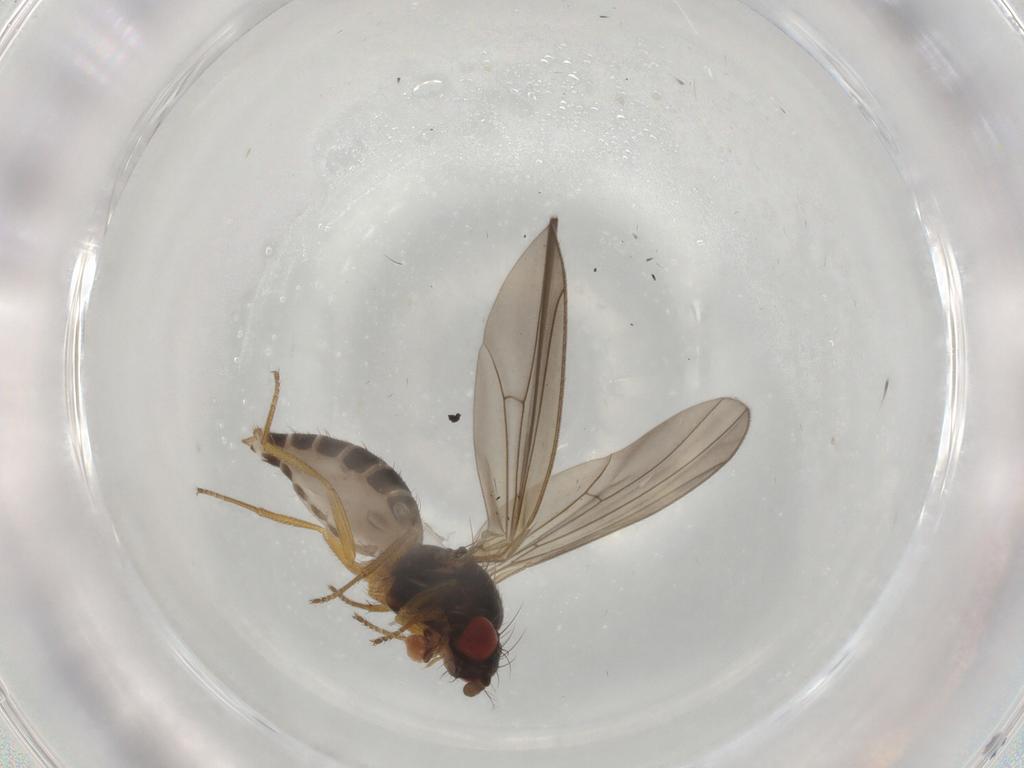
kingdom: Animalia
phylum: Arthropoda
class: Insecta
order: Diptera
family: Drosophilidae
